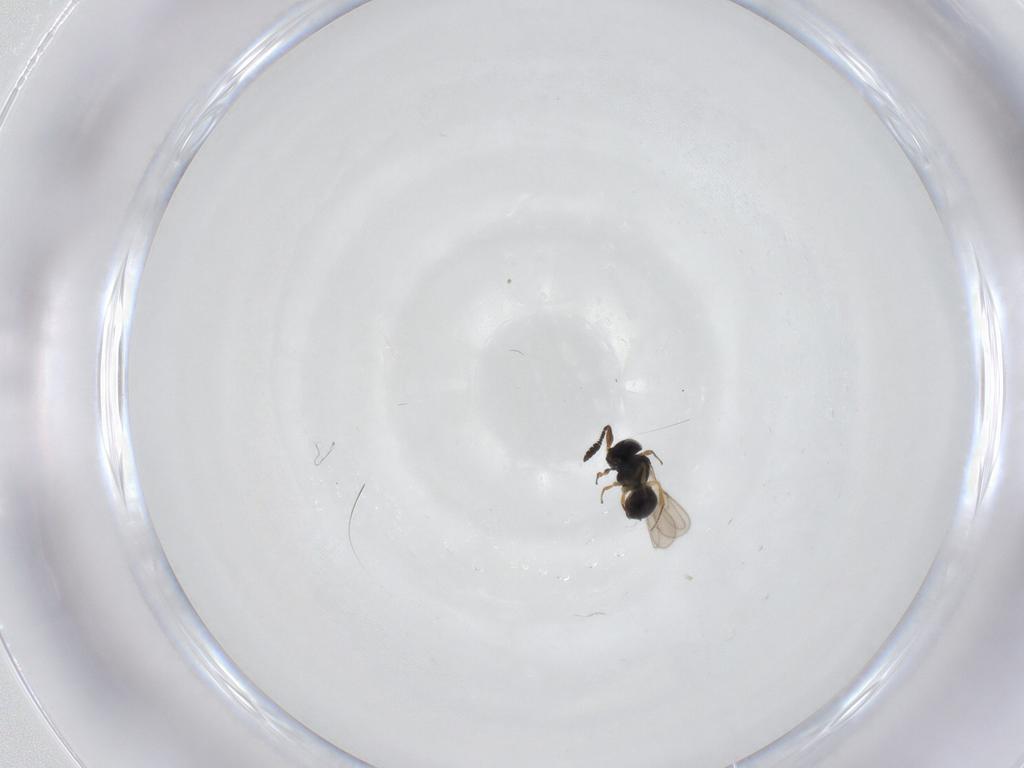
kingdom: Animalia
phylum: Arthropoda
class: Insecta
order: Hymenoptera
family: Scelionidae
